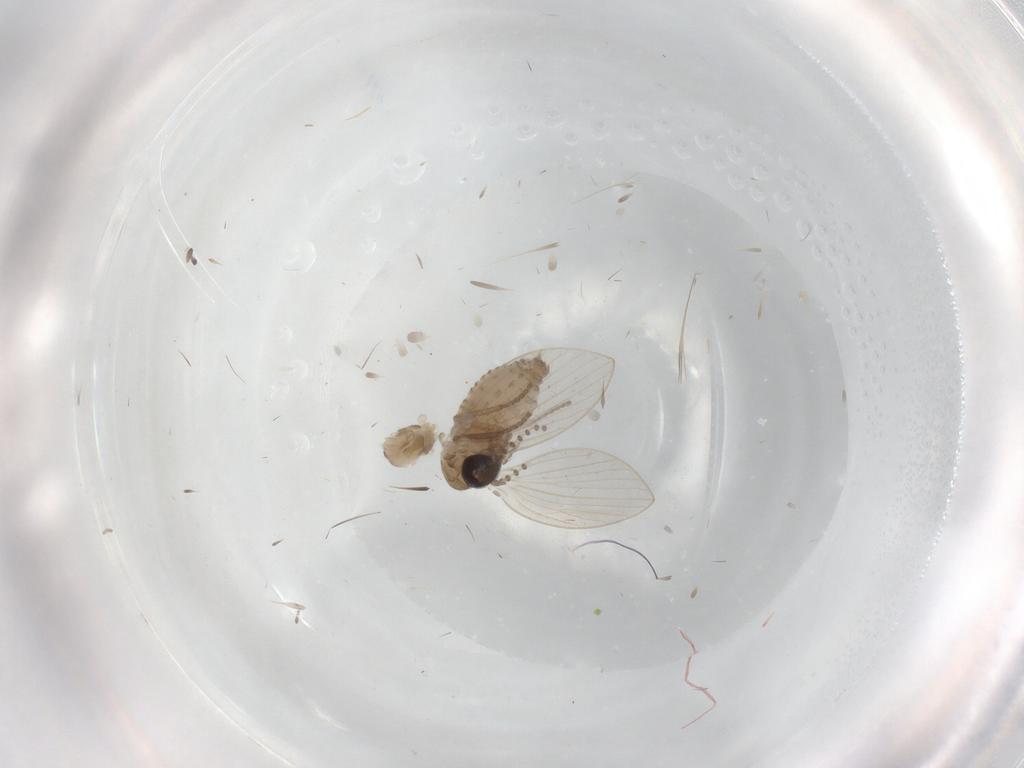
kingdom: Animalia
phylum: Arthropoda
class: Insecta
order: Diptera
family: Psychodidae
